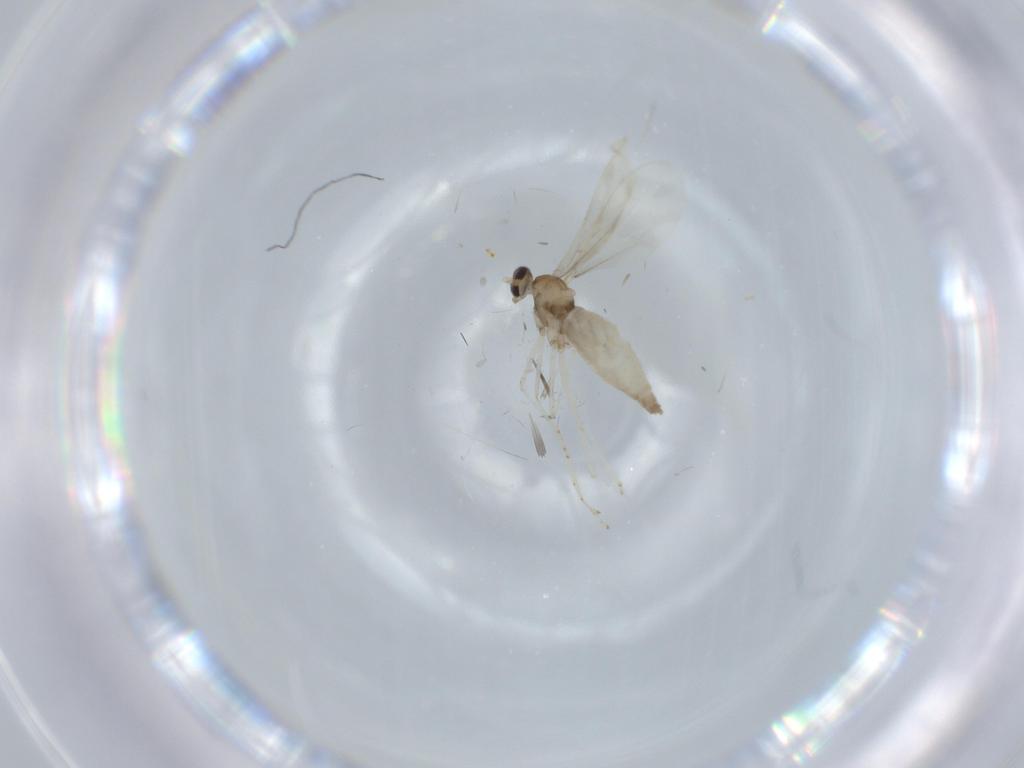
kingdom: Animalia
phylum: Arthropoda
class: Insecta
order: Diptera
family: Cecidomyiidae
